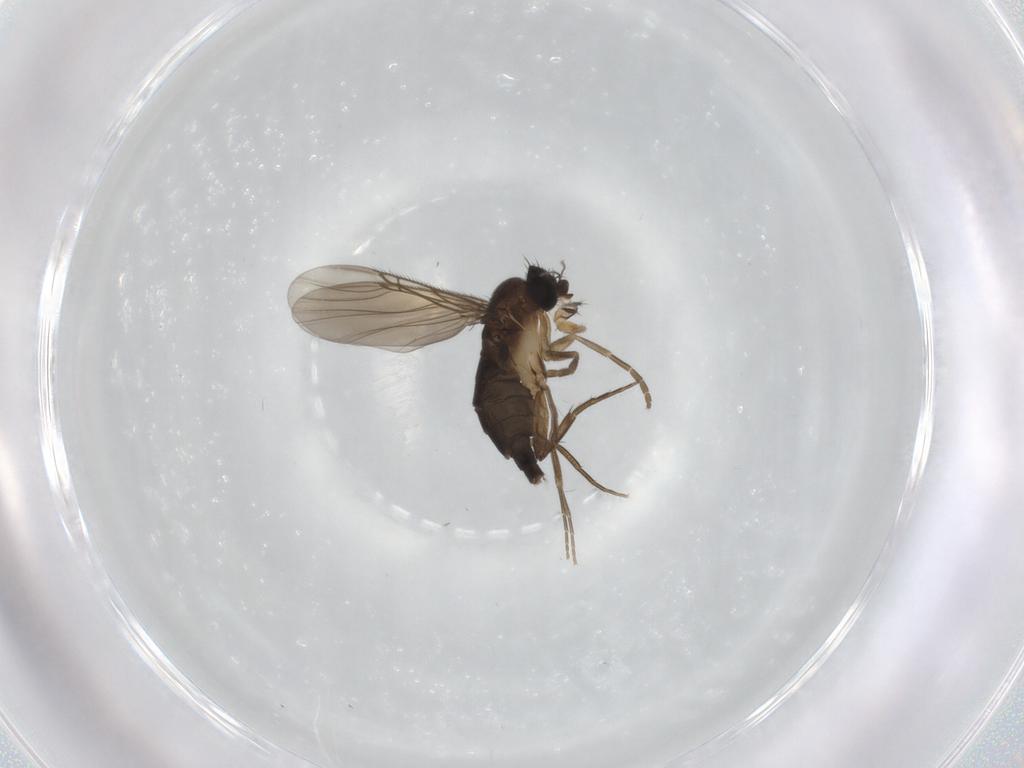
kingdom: Animalia
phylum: Arthropoda
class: Insecta
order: Diptera
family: Phoridae
